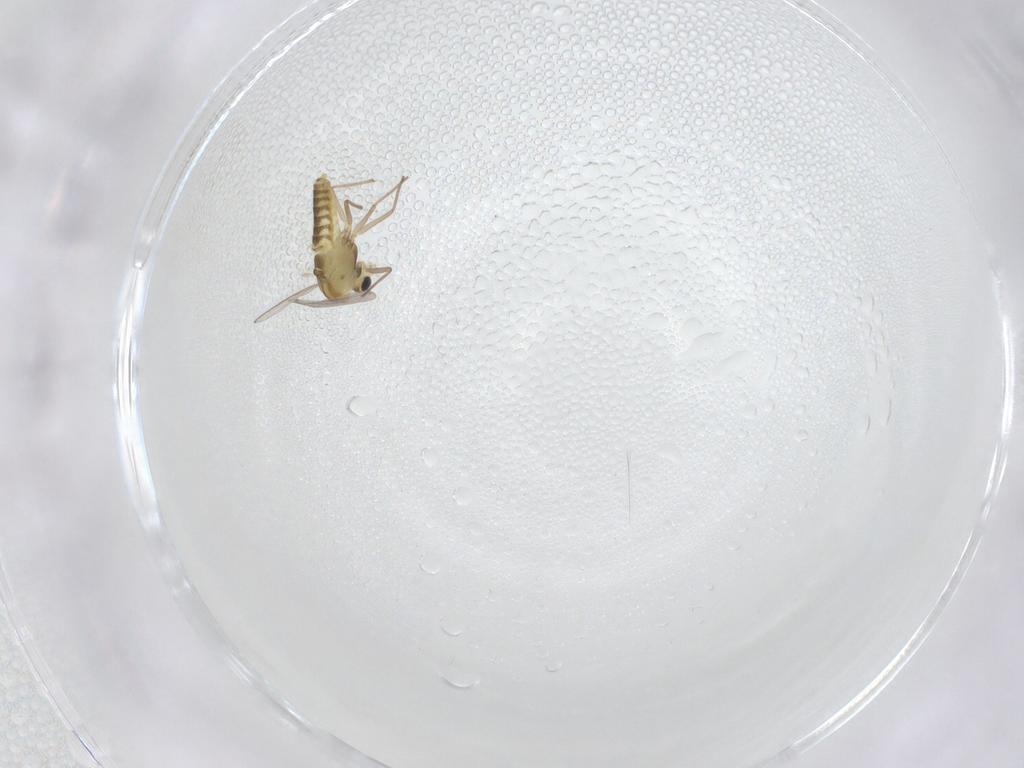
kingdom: Animalia
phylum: Arthropoda
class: Insecta
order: Diptera
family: Chironomidae
